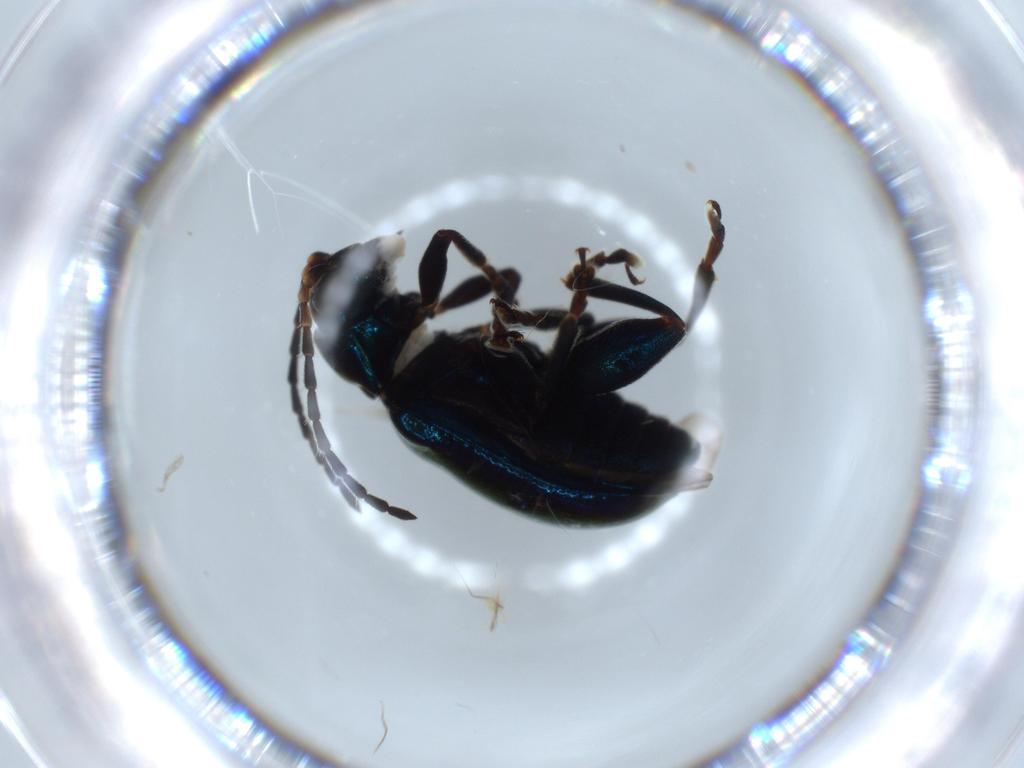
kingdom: Animalia
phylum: Arthropoda
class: Insecta
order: Coleoptera
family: Chrysomelidae
